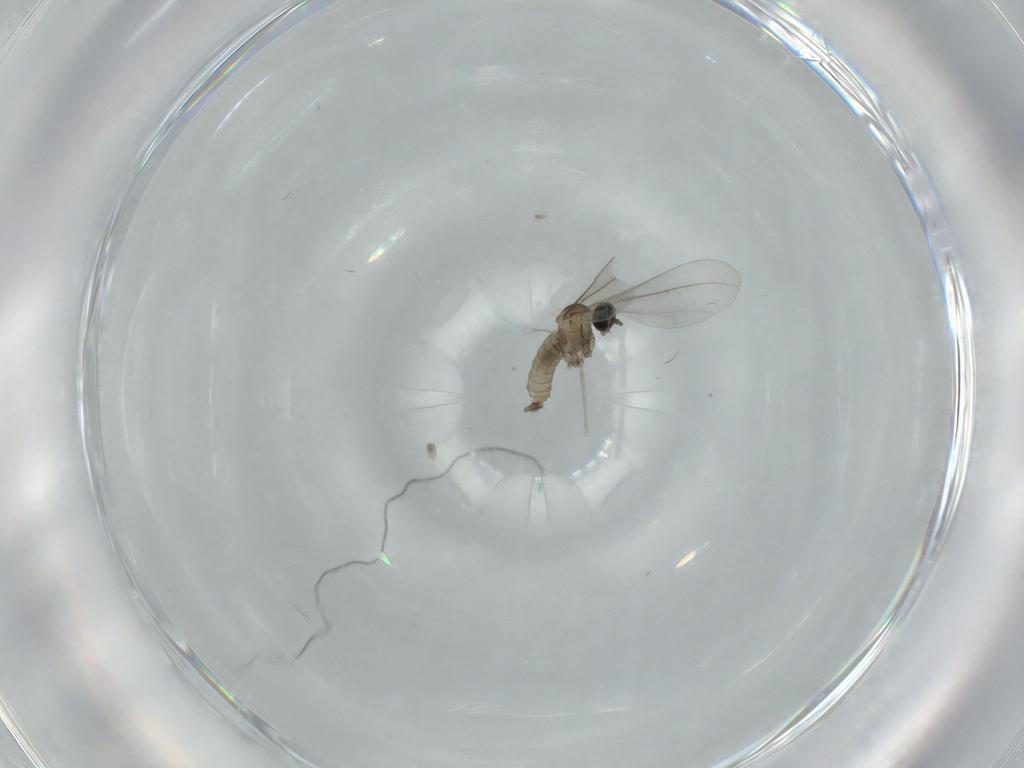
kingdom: Animalia
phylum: Arthropoda
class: Insecta
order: Diptera
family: Cecidomyiidae
